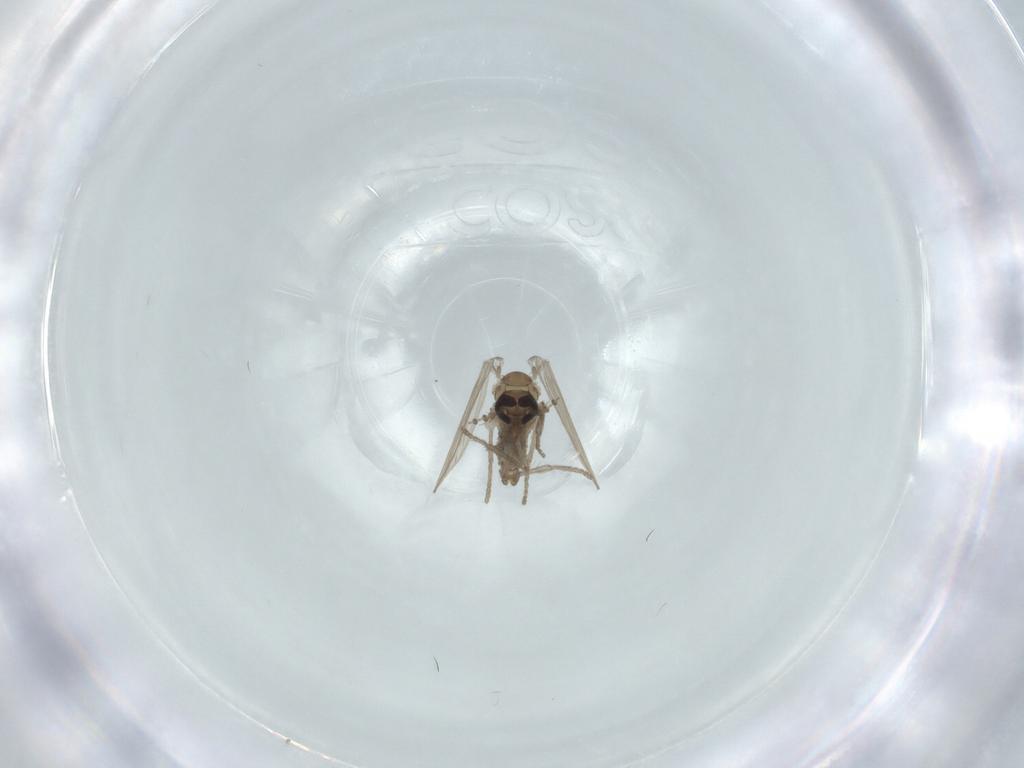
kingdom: Animalia
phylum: Arthropoda
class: Insecta
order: Diptera
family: Psychodidae
